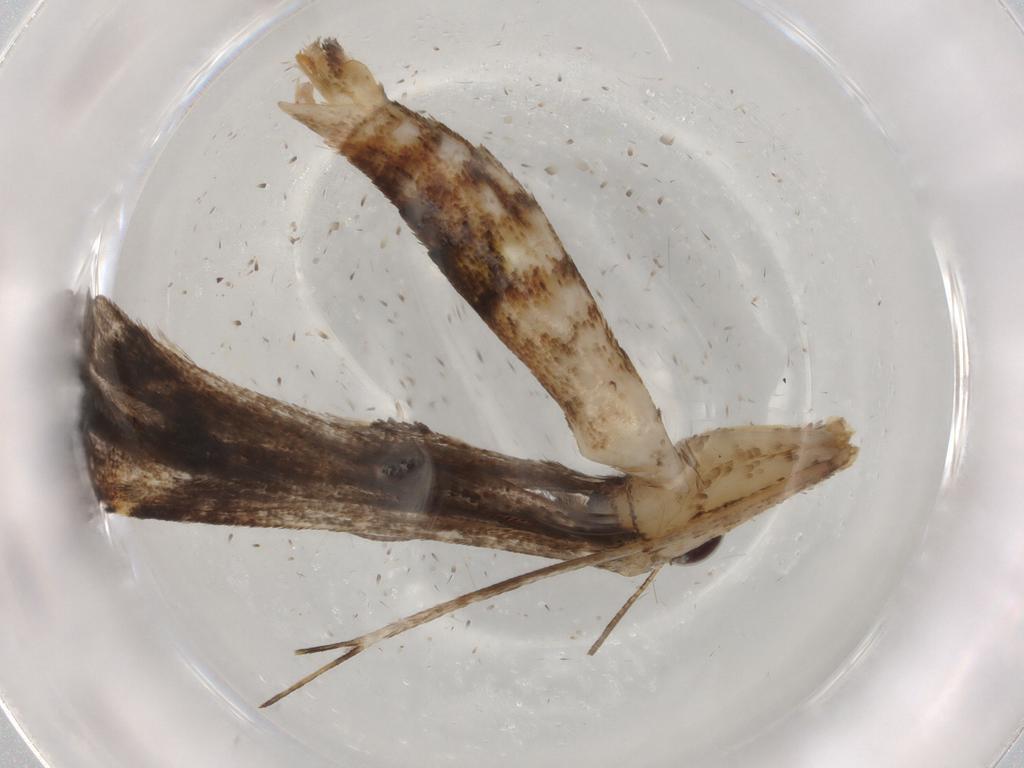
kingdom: Animalia
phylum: Arthropoda
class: Insecta
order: Lepidoptera
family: Pterophoridae
